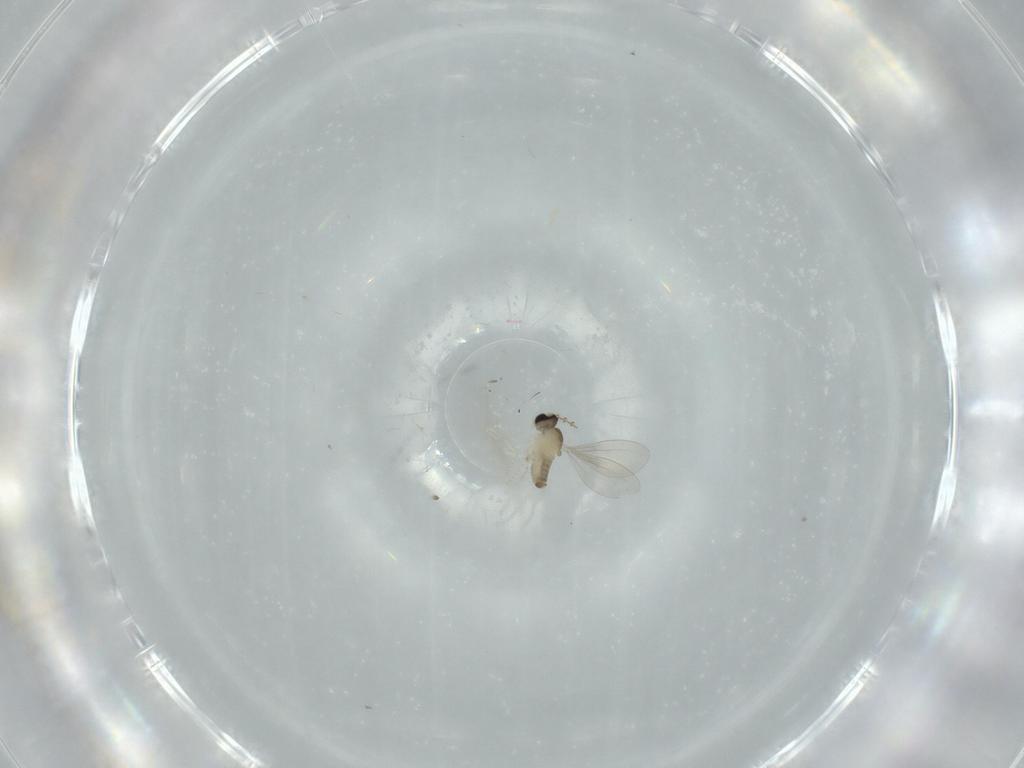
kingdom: Animalia
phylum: Arthropoda
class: Insecta
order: Diptera
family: Cecidomyiidae
